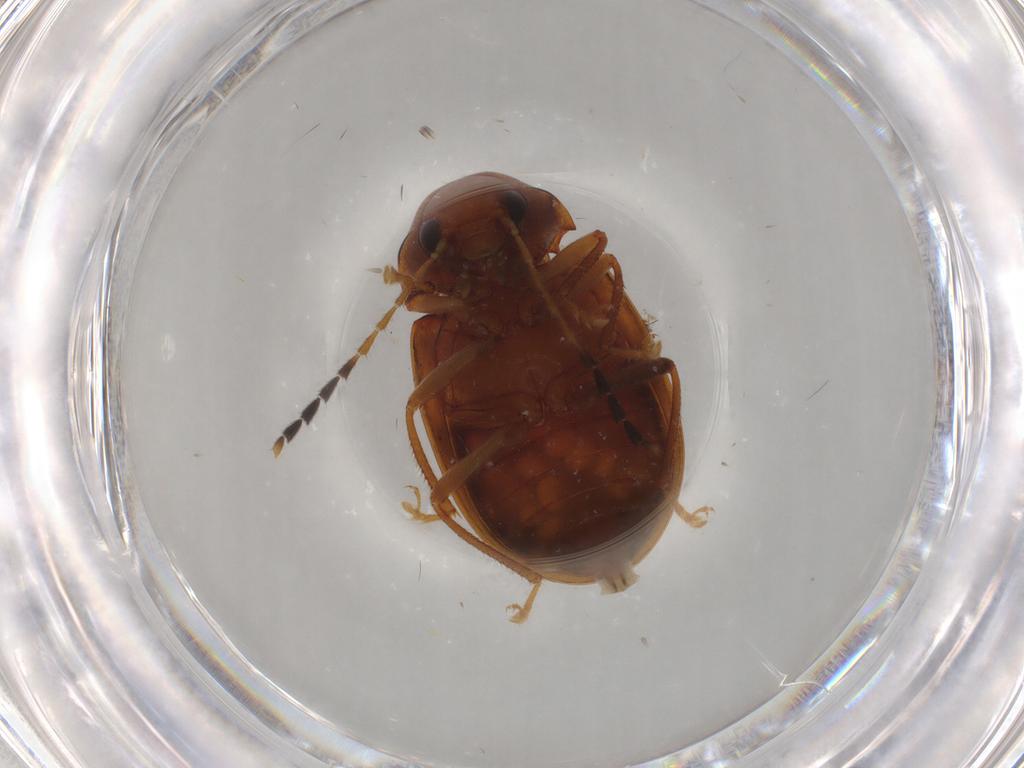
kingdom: Animalia
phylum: Arthropoda
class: Insecta
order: Coleoptera
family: Ptilodactylidae
